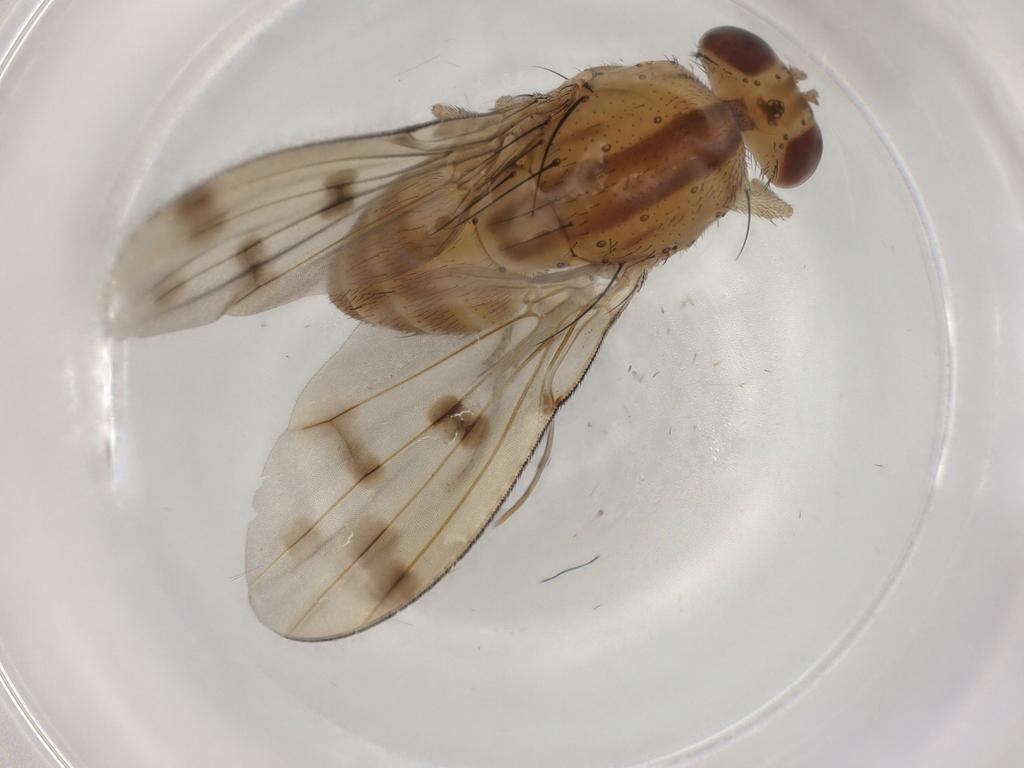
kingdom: Animalia
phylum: Arthropoda
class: Insecta
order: Diptera
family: Lauxaniidae
